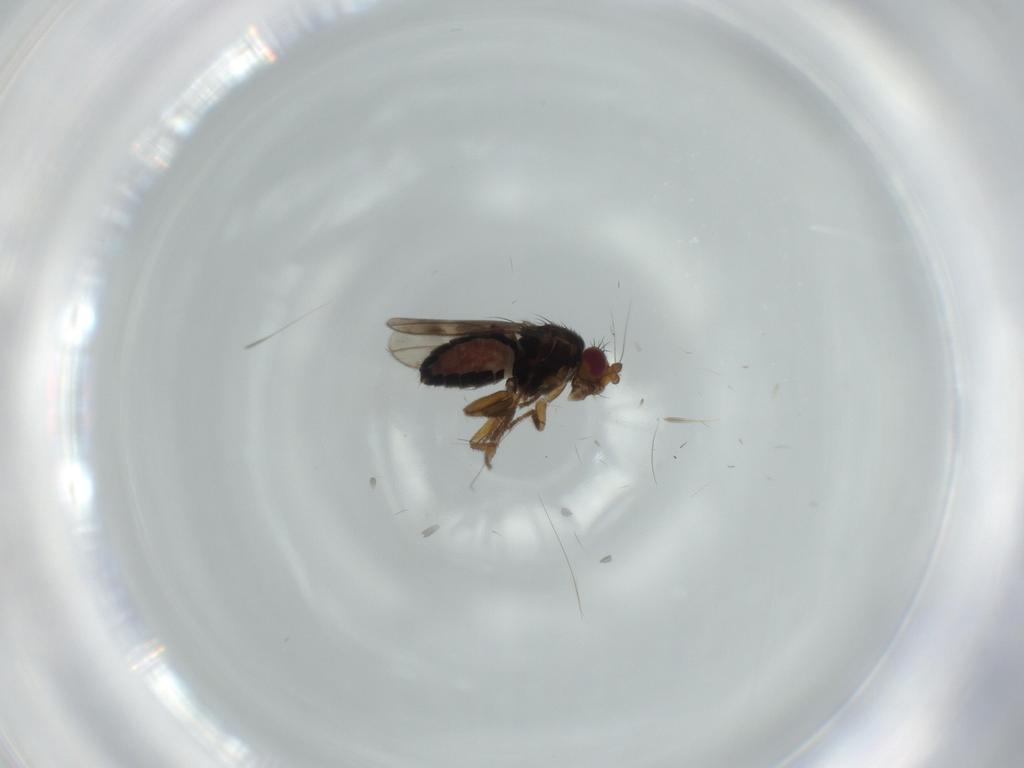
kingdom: Animalia
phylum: Arthropoda
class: Insecta
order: Diptera
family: Sphaeroceridae
